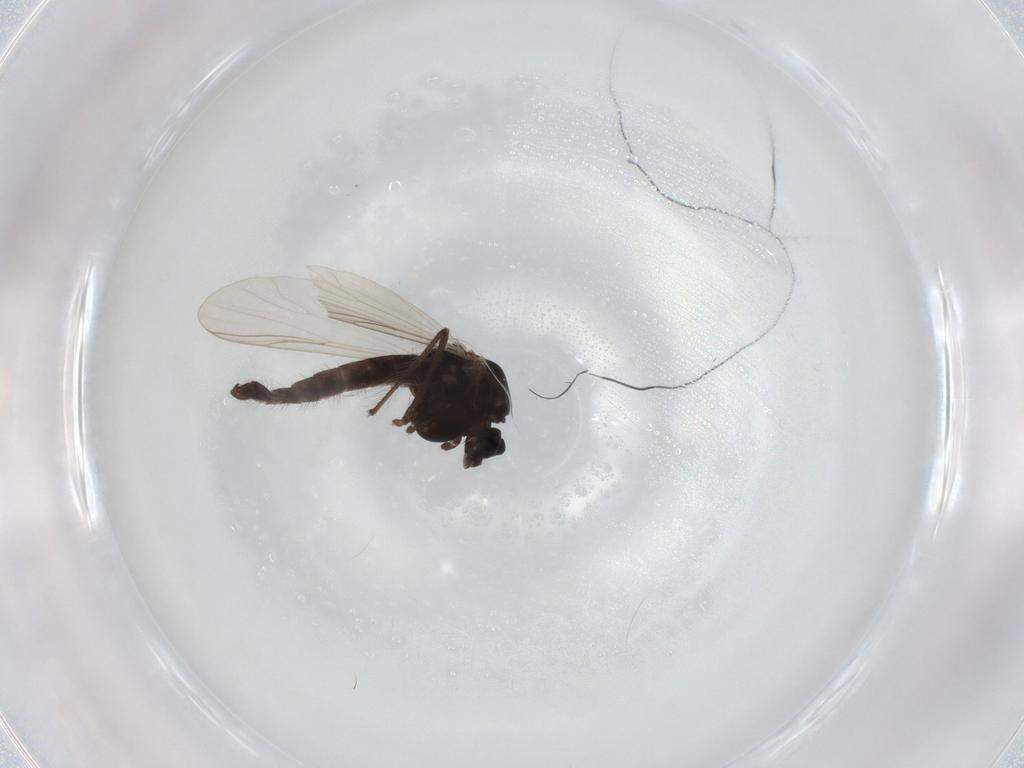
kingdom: Animalia
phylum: Arthropoda
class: Insecta
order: Diptera
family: Chironomidae
